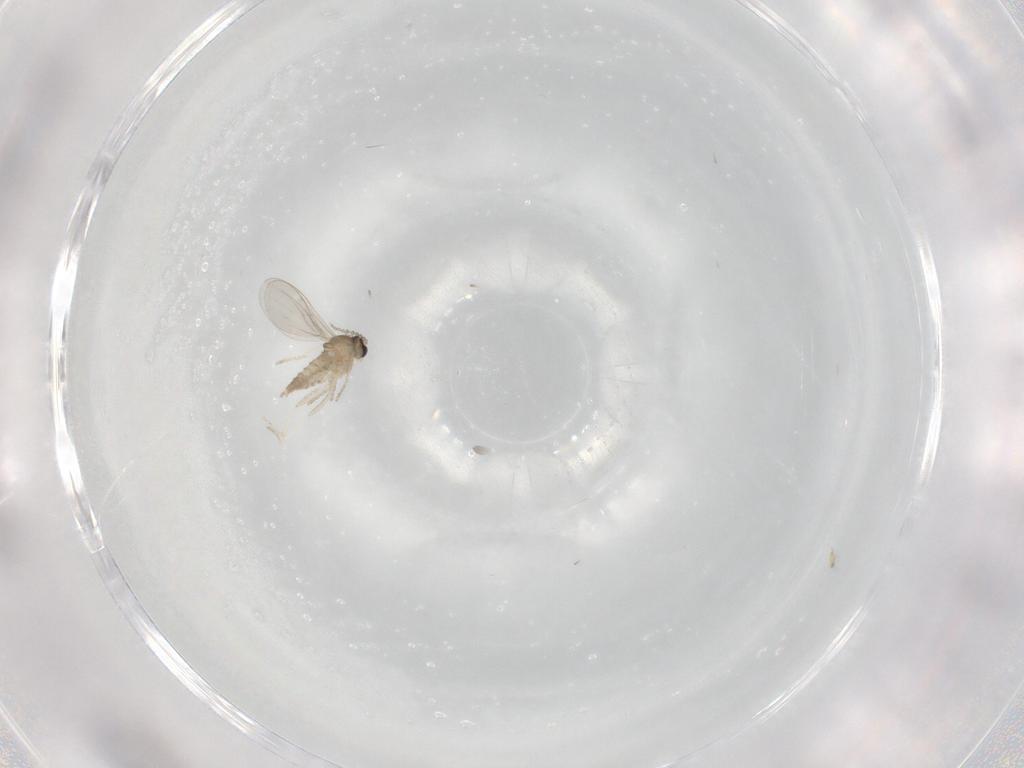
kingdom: Animalia
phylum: Arthropoda
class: Insecta
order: Diptera
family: Cecidomyiidae
